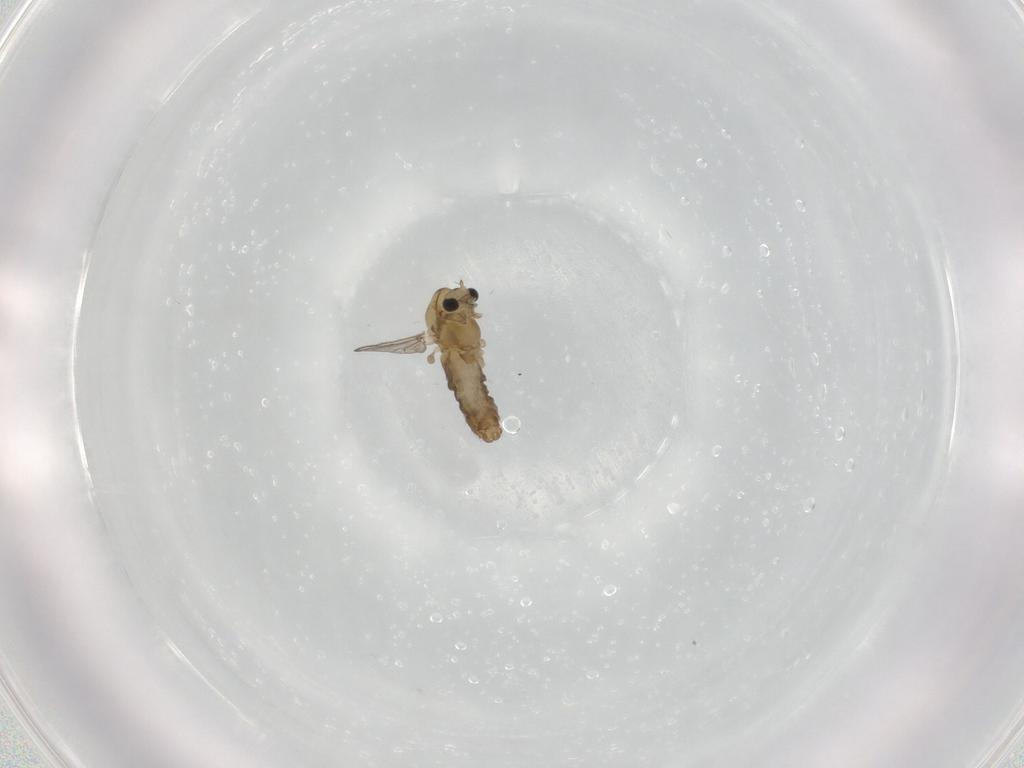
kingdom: Animalia
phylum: Arthropoda
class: Insecta
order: Diptera
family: Chironomidae
